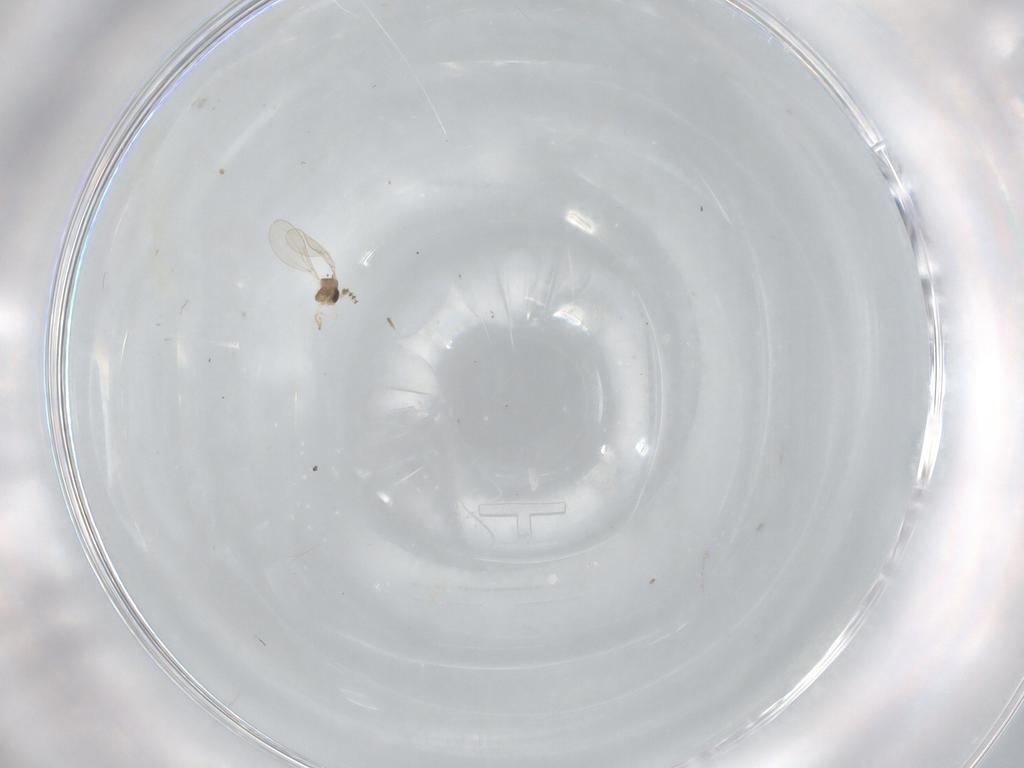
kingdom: Animalia
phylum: Arthropoda
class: Insecta
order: Diptera
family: Cecidomyiidae
